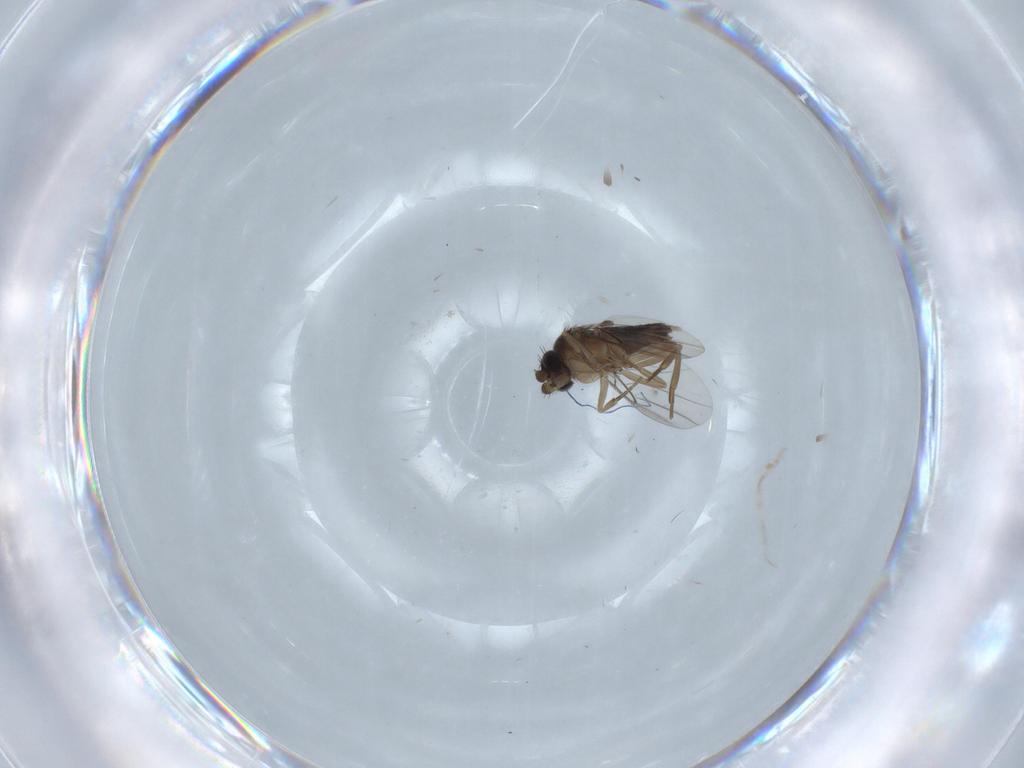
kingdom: Animalia
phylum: Arthropoda
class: Insecta
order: Diptera
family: Phoridae
